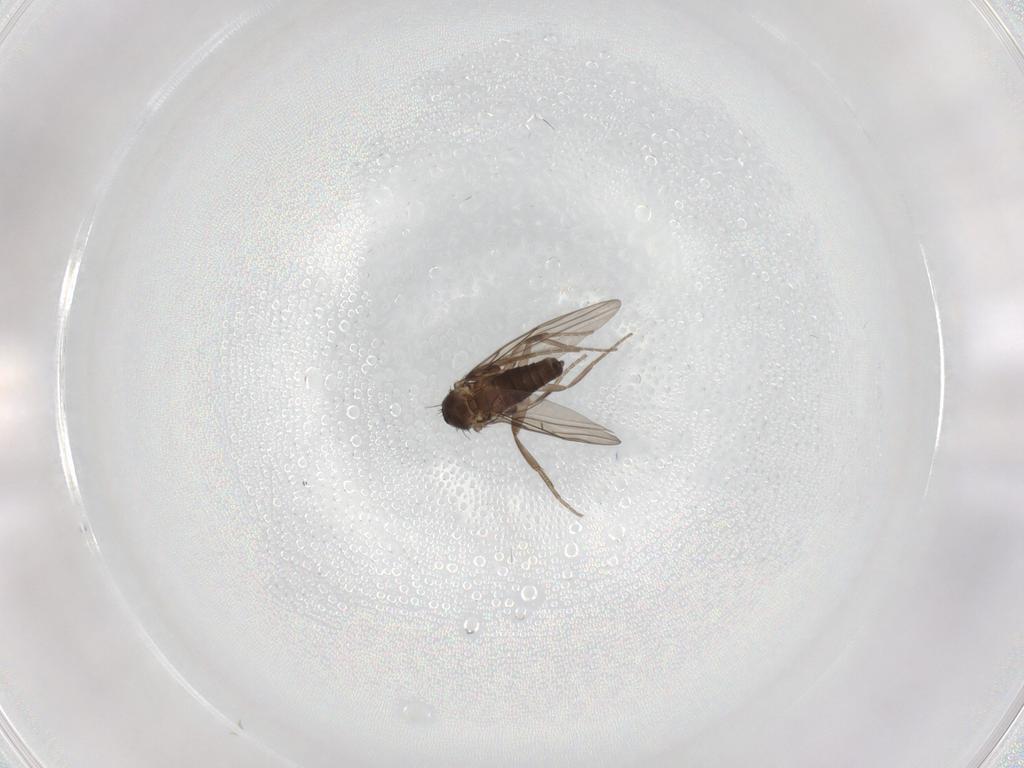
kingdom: Animalia
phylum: Arthropoda
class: Insecta
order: Diptera
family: Phoridae
